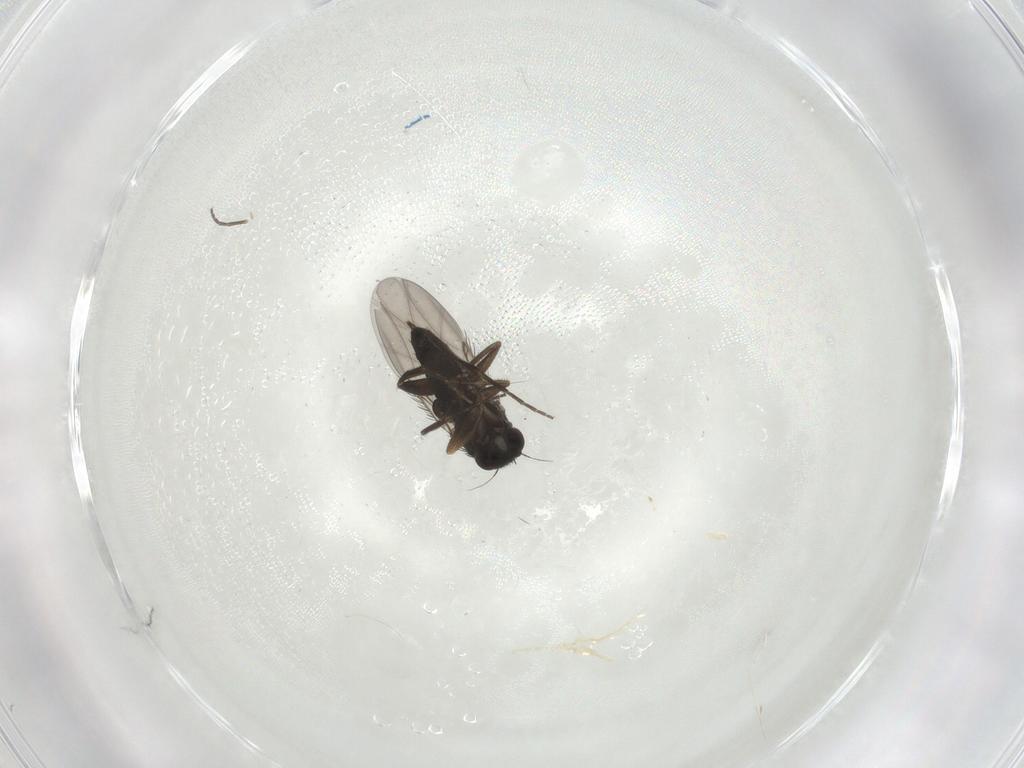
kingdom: Animalia
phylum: Arthropoda
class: Insecta
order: Diptera
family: Phoridae
